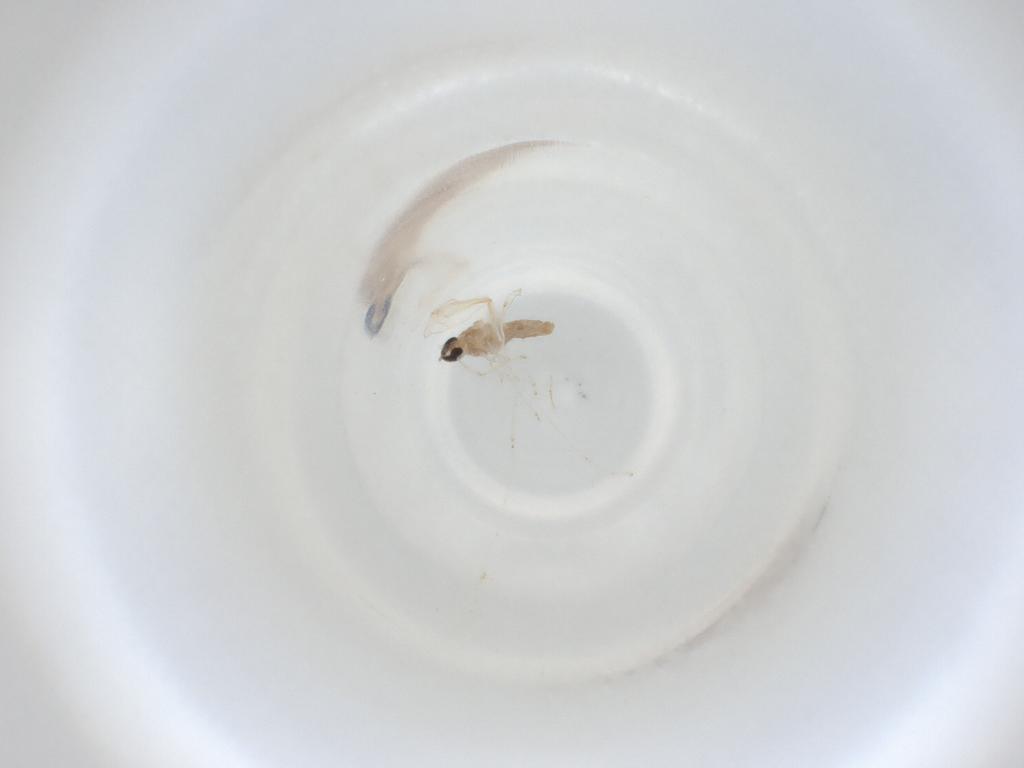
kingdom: Animalia
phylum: Arthropoda
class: Insecta
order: Diptera
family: Cecidomyiidae
